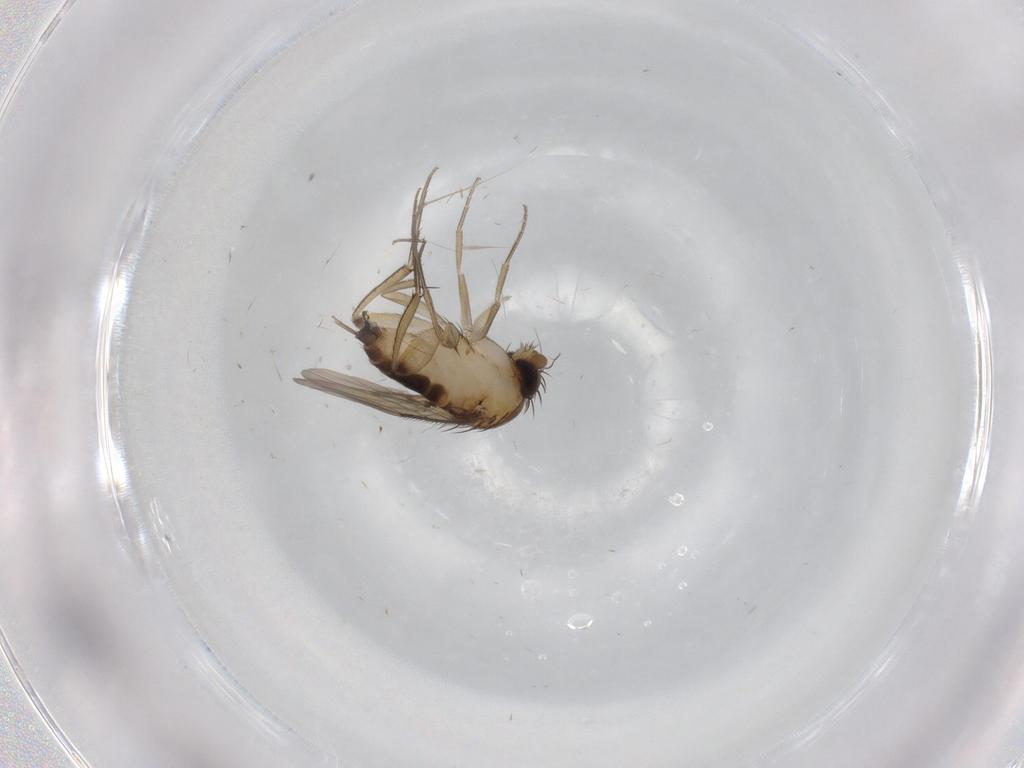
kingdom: Animalia
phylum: Arthropoda
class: Insecta
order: Diptera
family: Phoridae
